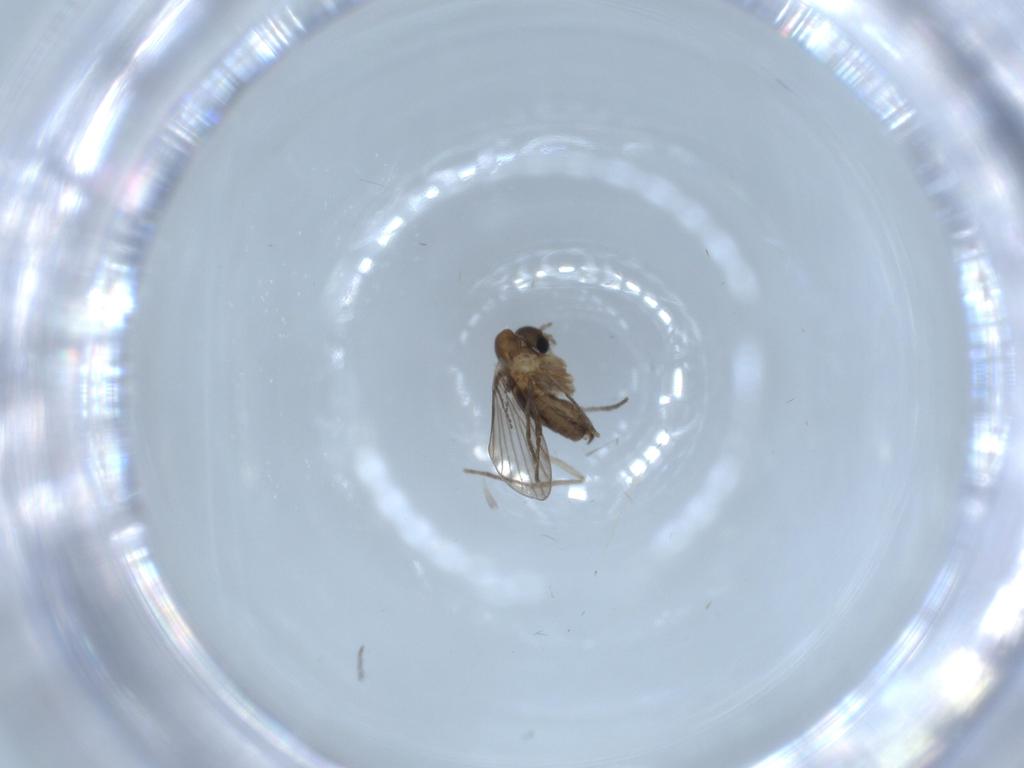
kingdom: Animalia
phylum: Arthropoda
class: Insecta
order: Diptera
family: Psychodidae
